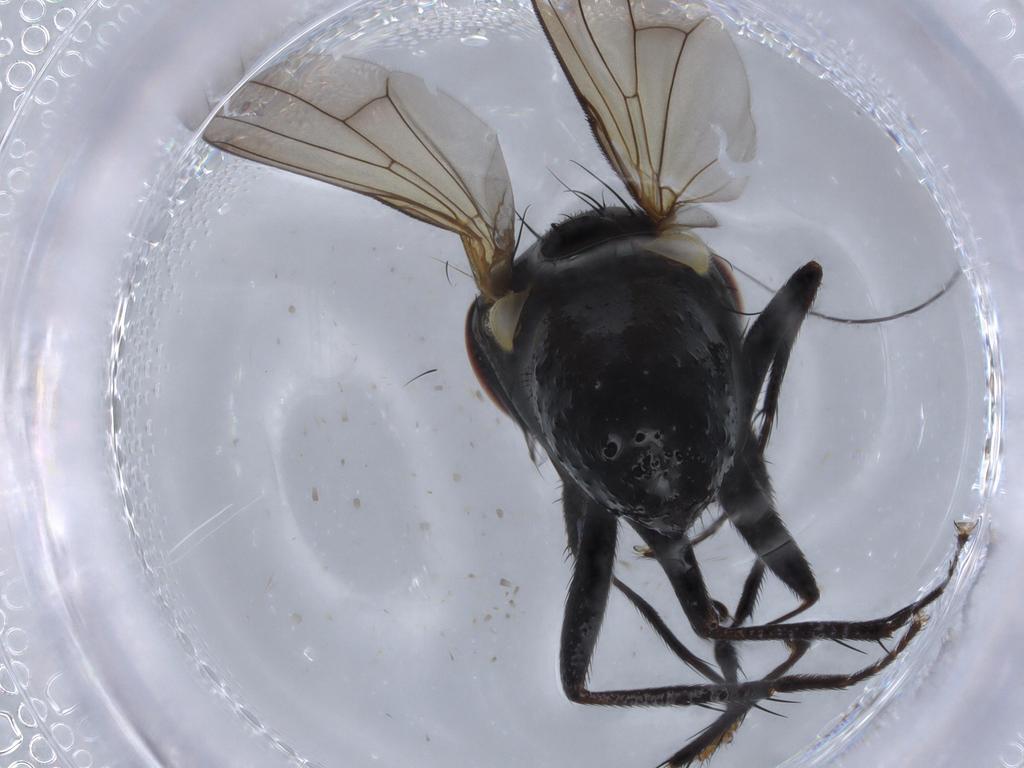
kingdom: Animalia
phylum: Arthropoda
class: Insecta
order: Diptera
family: Muscidae
